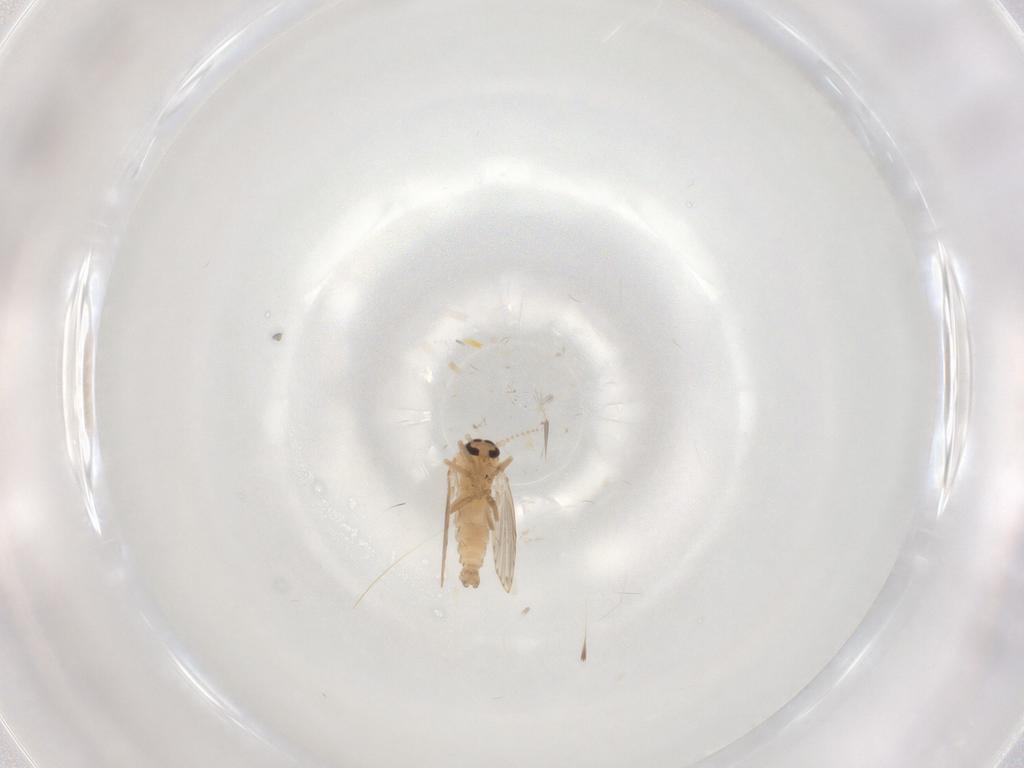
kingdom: Animalia
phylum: Arthropoda
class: Insecta
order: Diptera
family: Psychodidae
